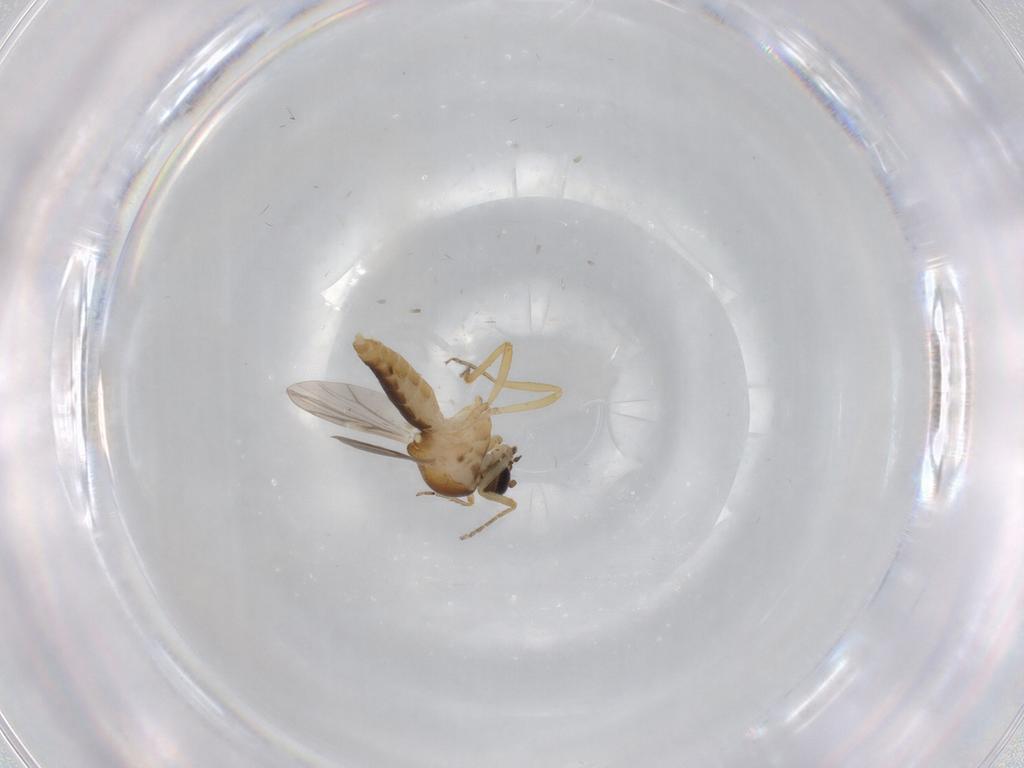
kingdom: Animalia
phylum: Arthropoda
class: Insecta
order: Diptera
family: Ceratopogonidae
